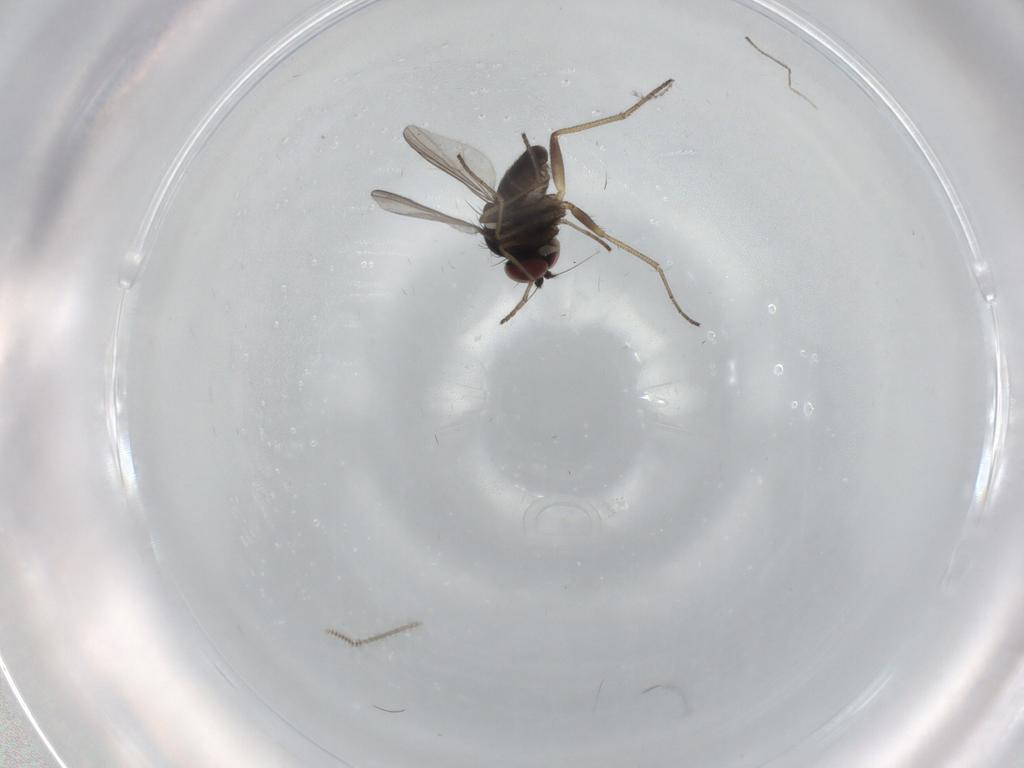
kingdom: Animalia
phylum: Arthropoda
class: Insecta
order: Diptera
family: Dolichopodidae
